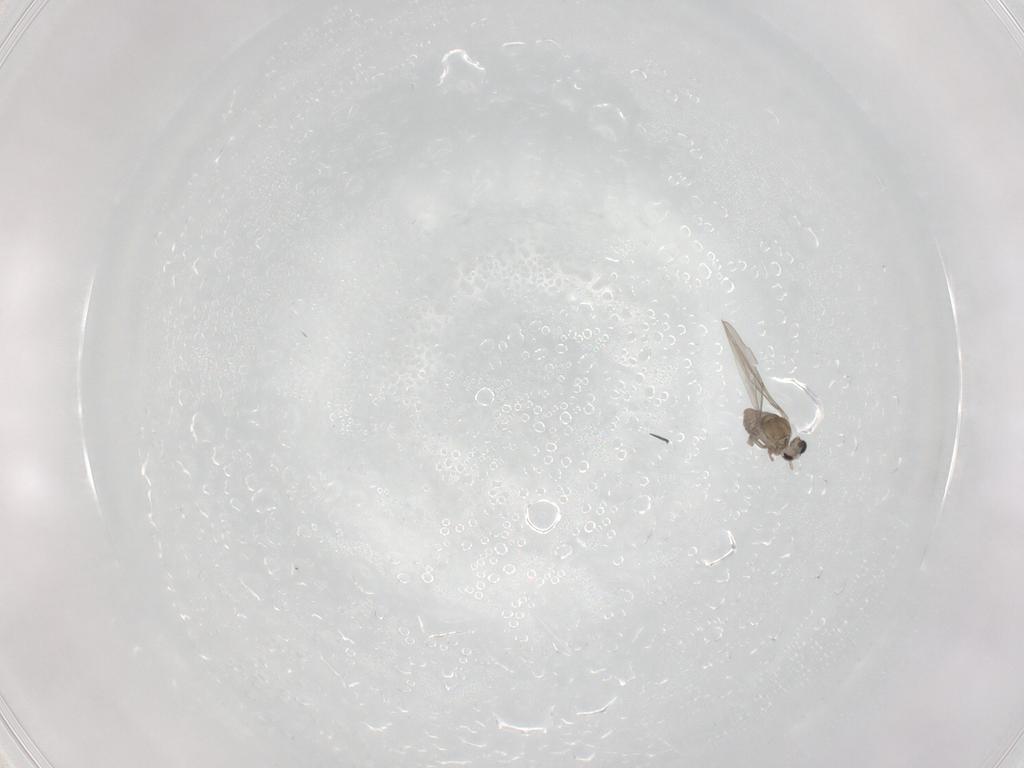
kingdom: Animalia
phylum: Arthropoda
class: Insecta
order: Diptera
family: Cecidomyiidae
